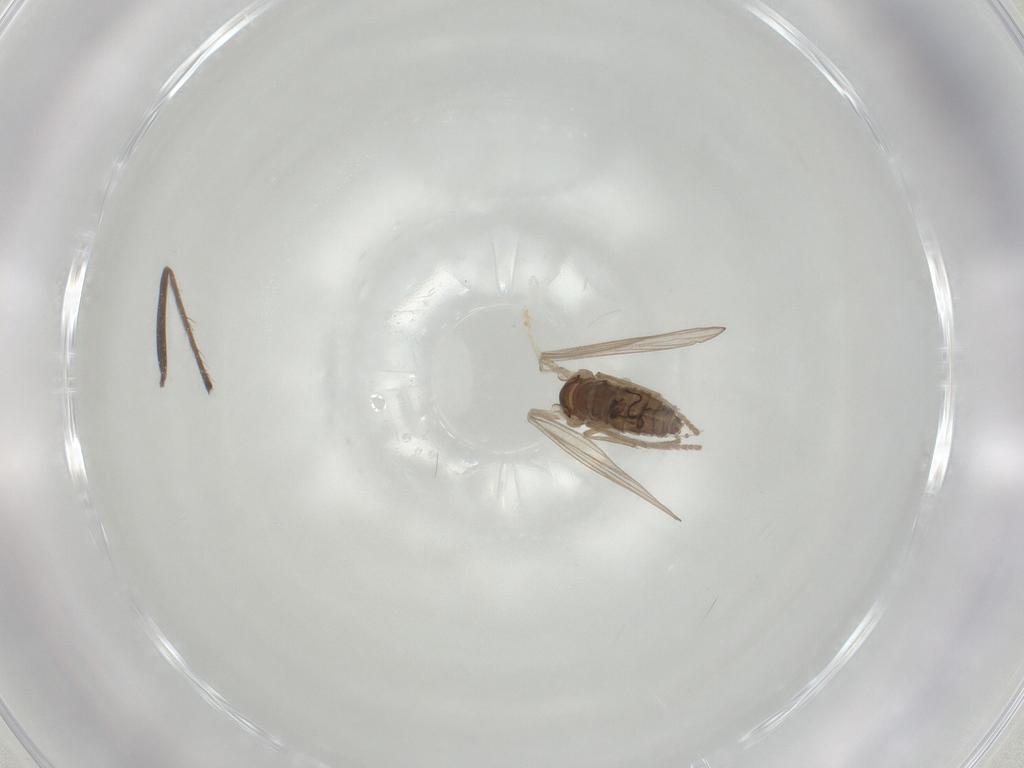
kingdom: Animalia
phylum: Arthropoda
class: Insecta
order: Diptera
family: Psychodidae
